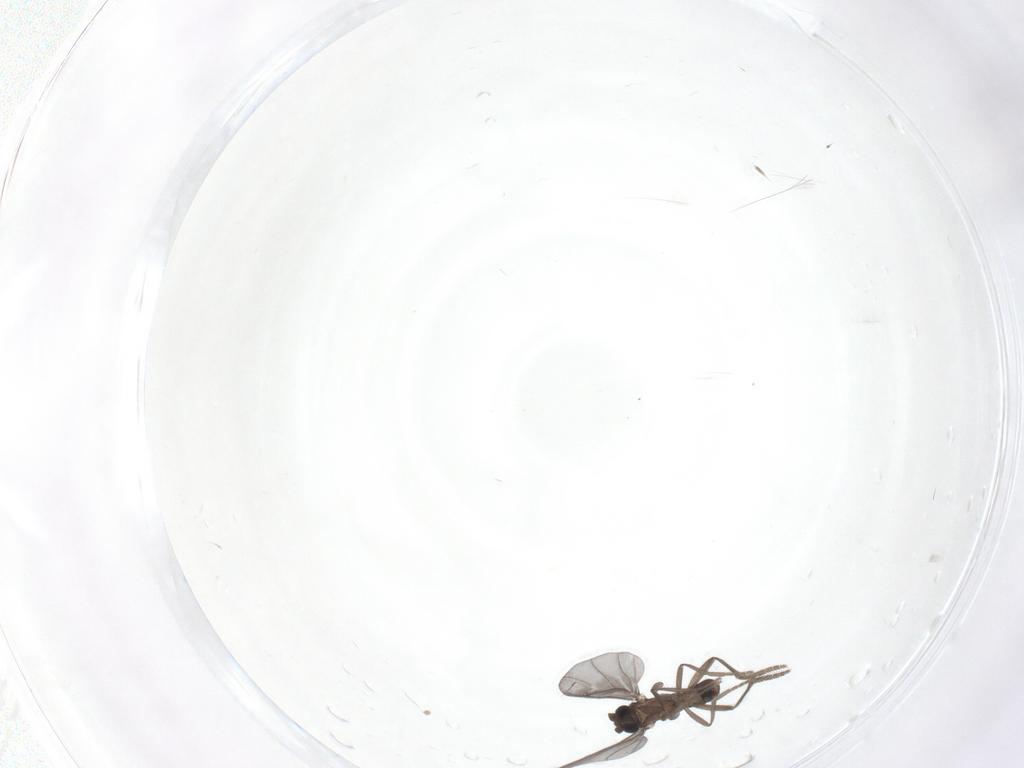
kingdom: Animalia
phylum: Arthropoda
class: Insecta
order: Diptera
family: Phoridae
